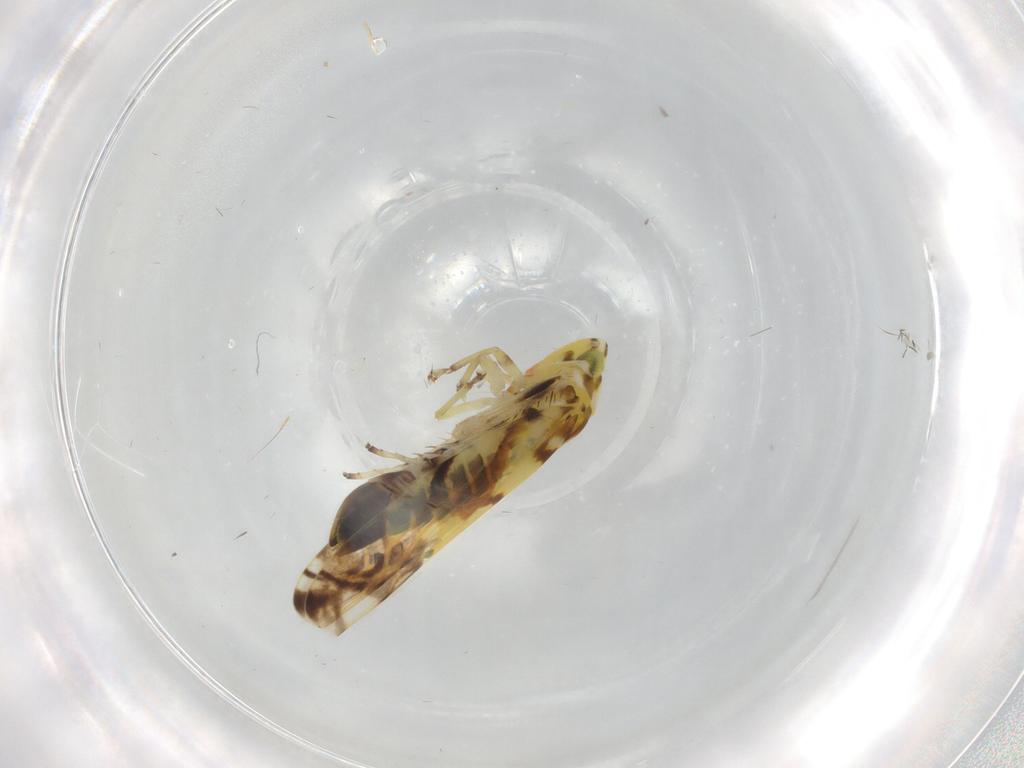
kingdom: Animalia
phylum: Arthropoda
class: Insecta
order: Hemiptera
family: Cicadellidae
